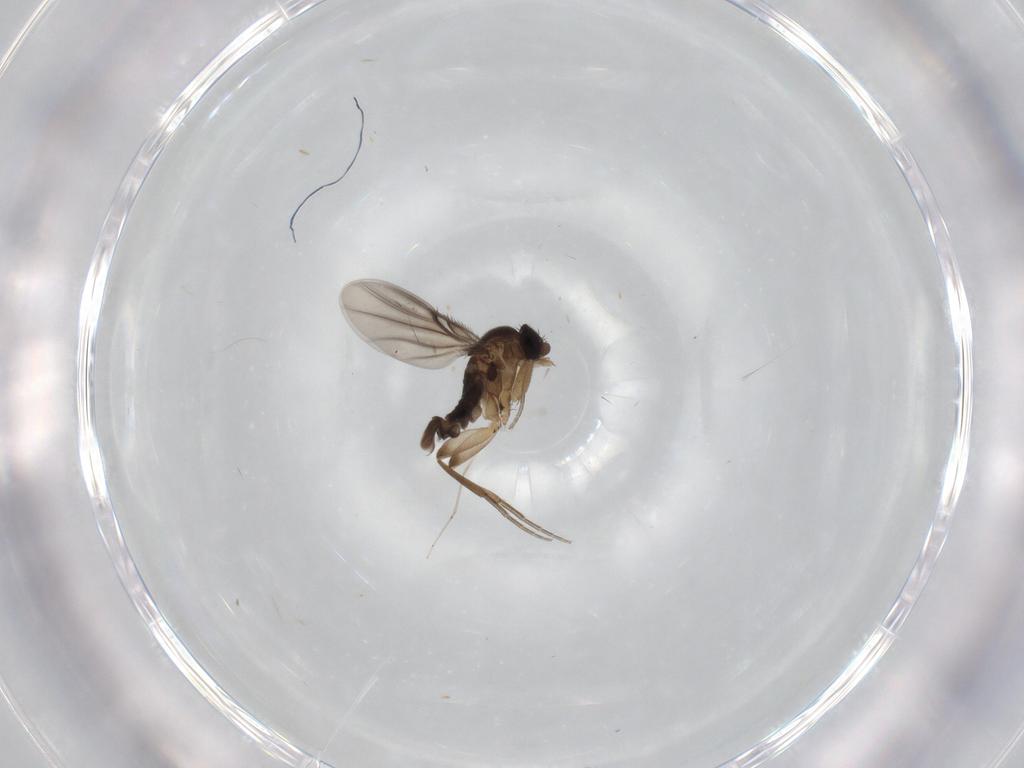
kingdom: Animalia
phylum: Arthropoda
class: Insecta
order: Diptera
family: Phoridae
